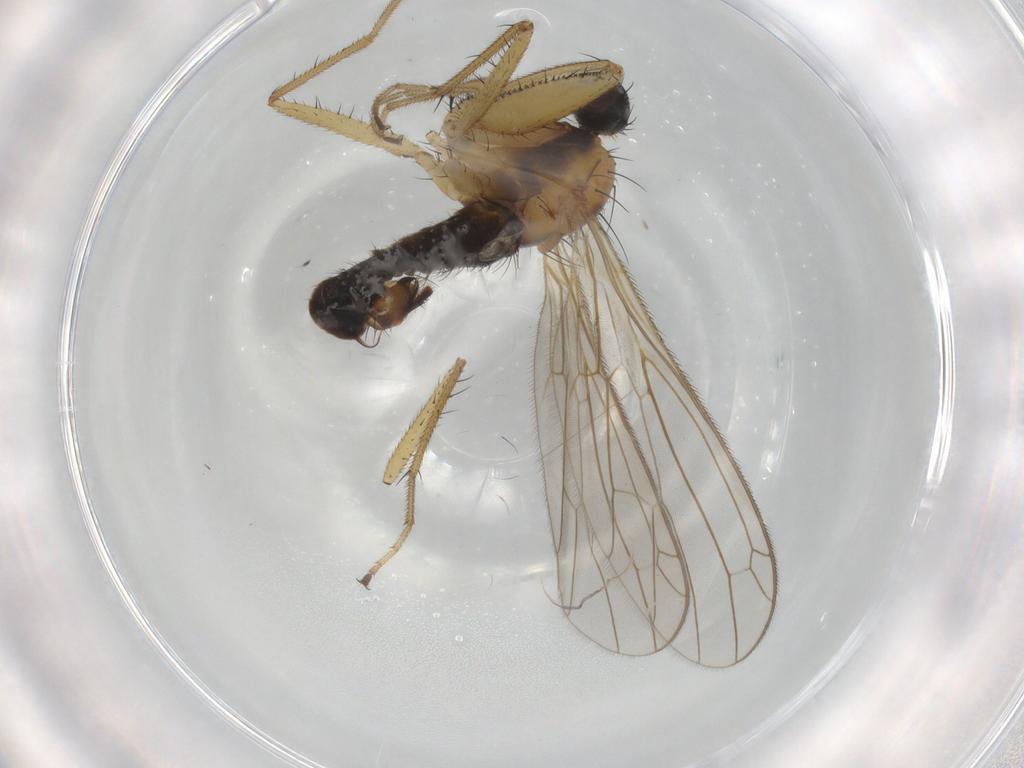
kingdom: Animalia
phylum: Arthropoda
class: Insecta
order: Diptera
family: Empididae
